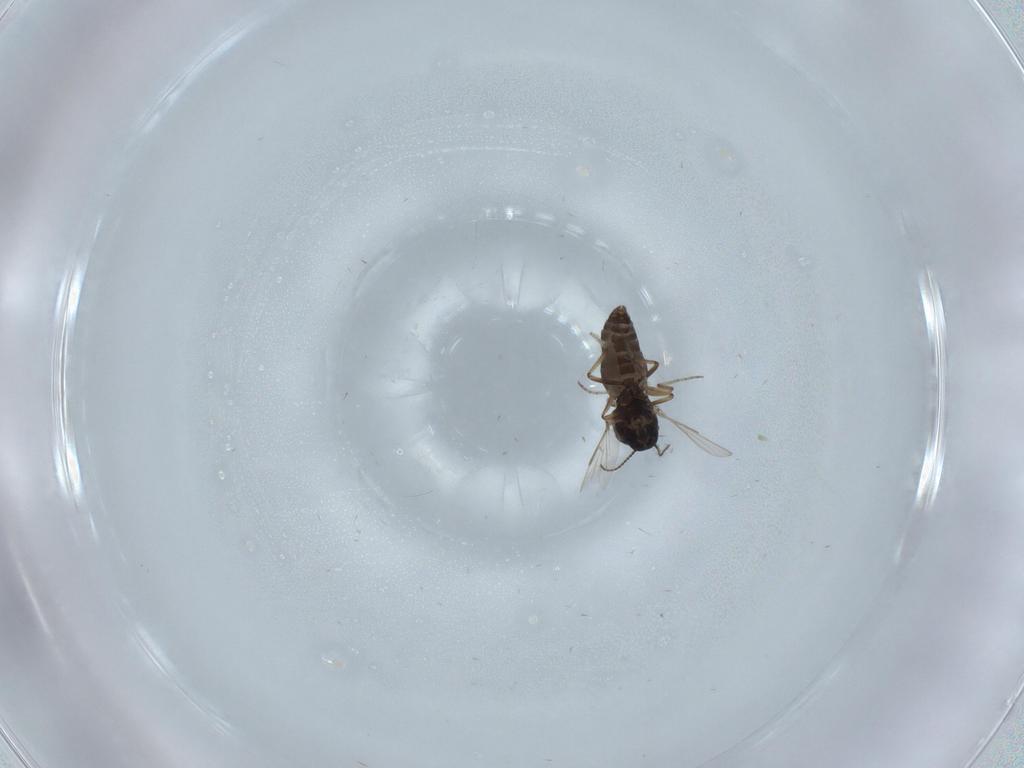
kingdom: Animalia
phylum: Arthropoda
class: Insecta
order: Diptera
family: Ceratopogonidae
